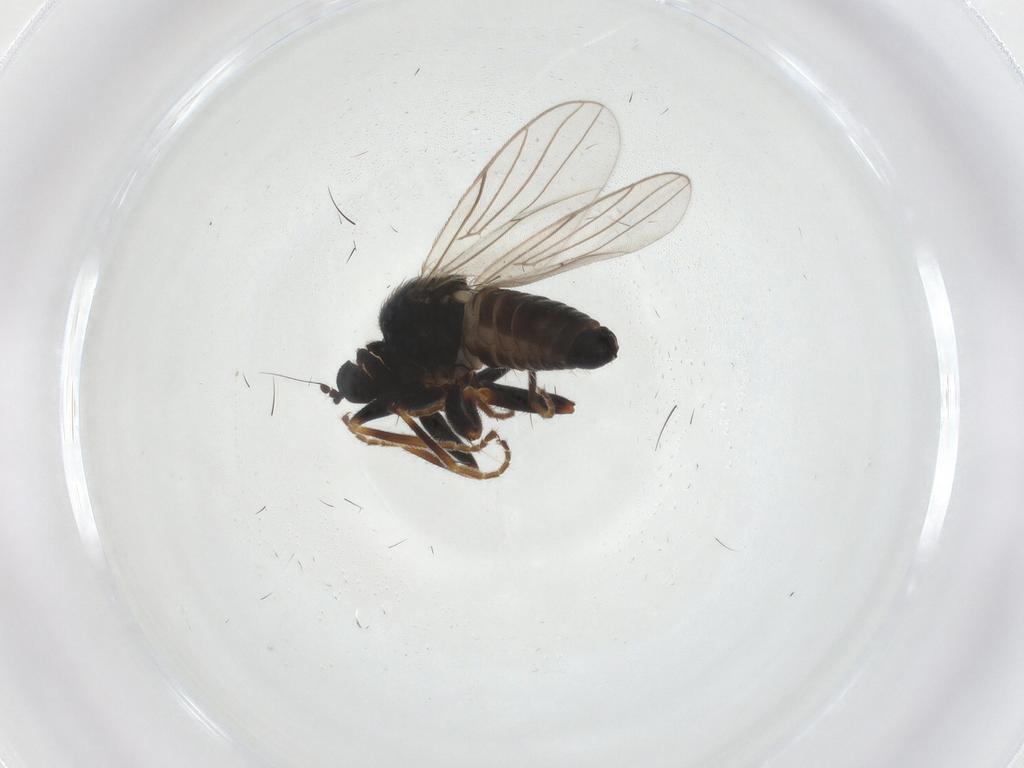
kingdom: Animalia
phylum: Arthropoda
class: Insecta
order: Diptera
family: Hybotidae
